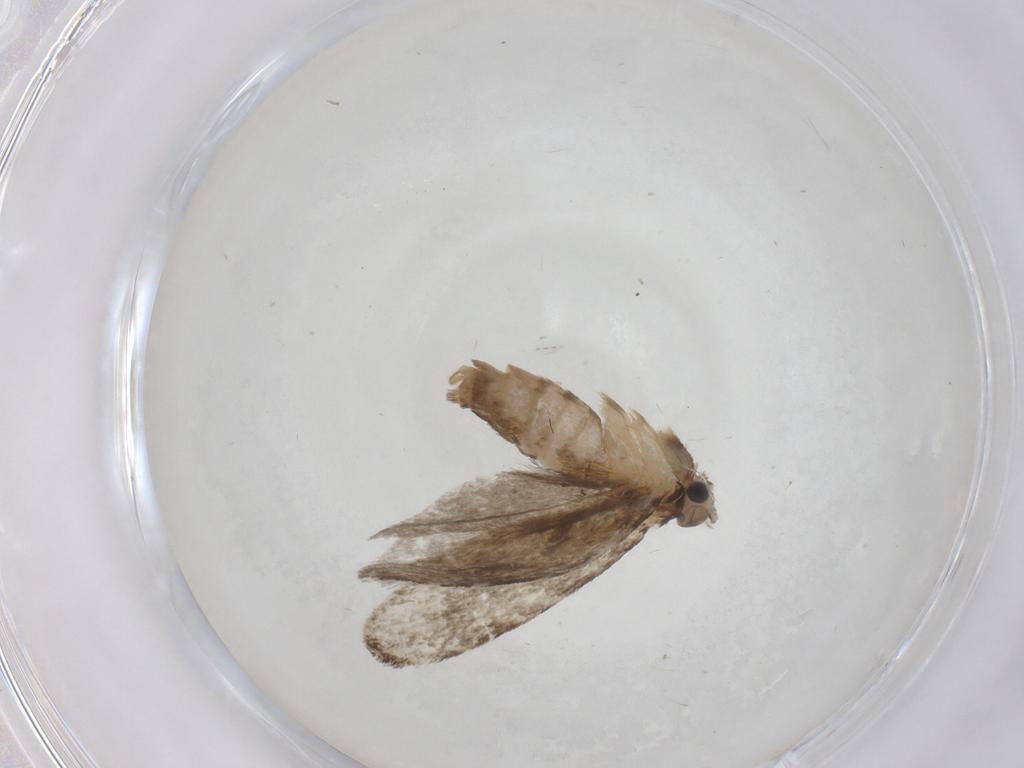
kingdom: Animalia
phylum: Arthropoda
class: Insecta
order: Lepidoptera
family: Tineidae
